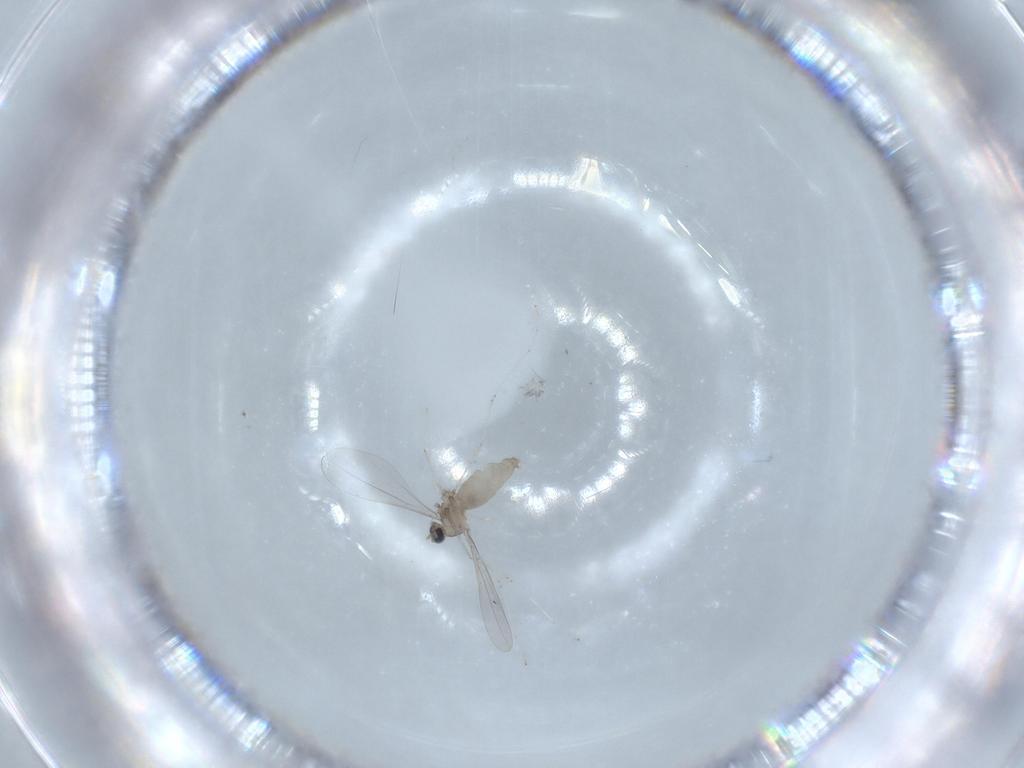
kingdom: Animalia
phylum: Arthropoda
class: Insecta
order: Diptera
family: Cecidomyiidae
